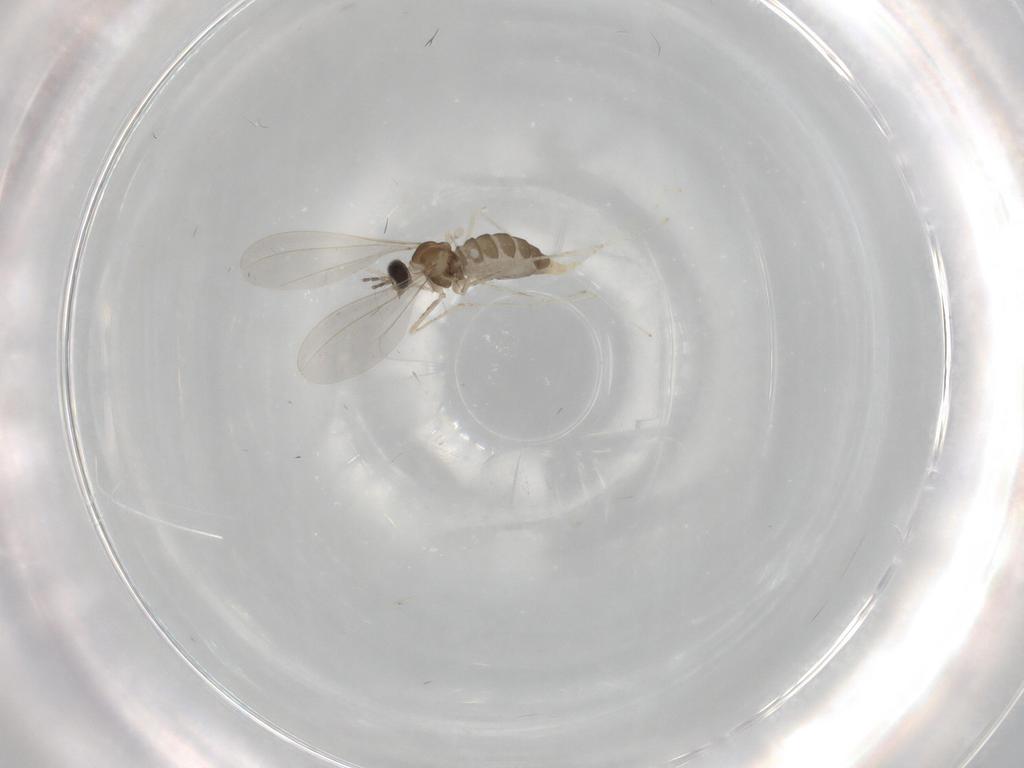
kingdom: Animalia
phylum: Arthropoda
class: Insecta
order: Diptera
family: Cecidomyiidae
